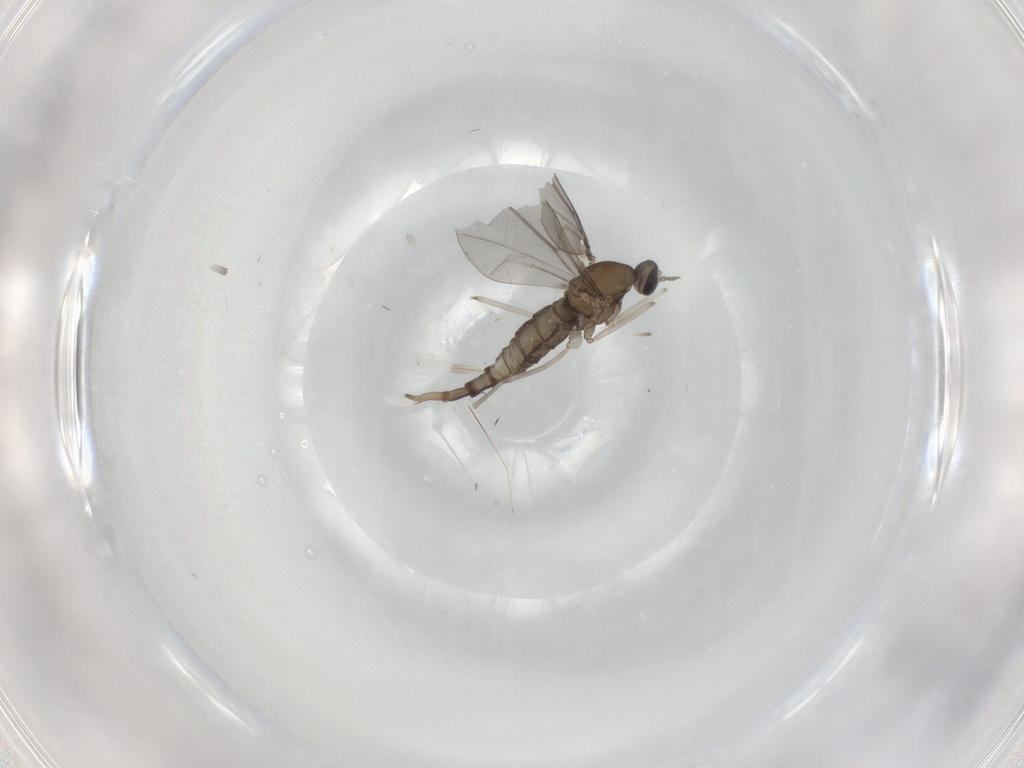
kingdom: Animalia
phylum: Arthropoda
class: Insecta
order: Diptera
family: Cecidomyiidae
